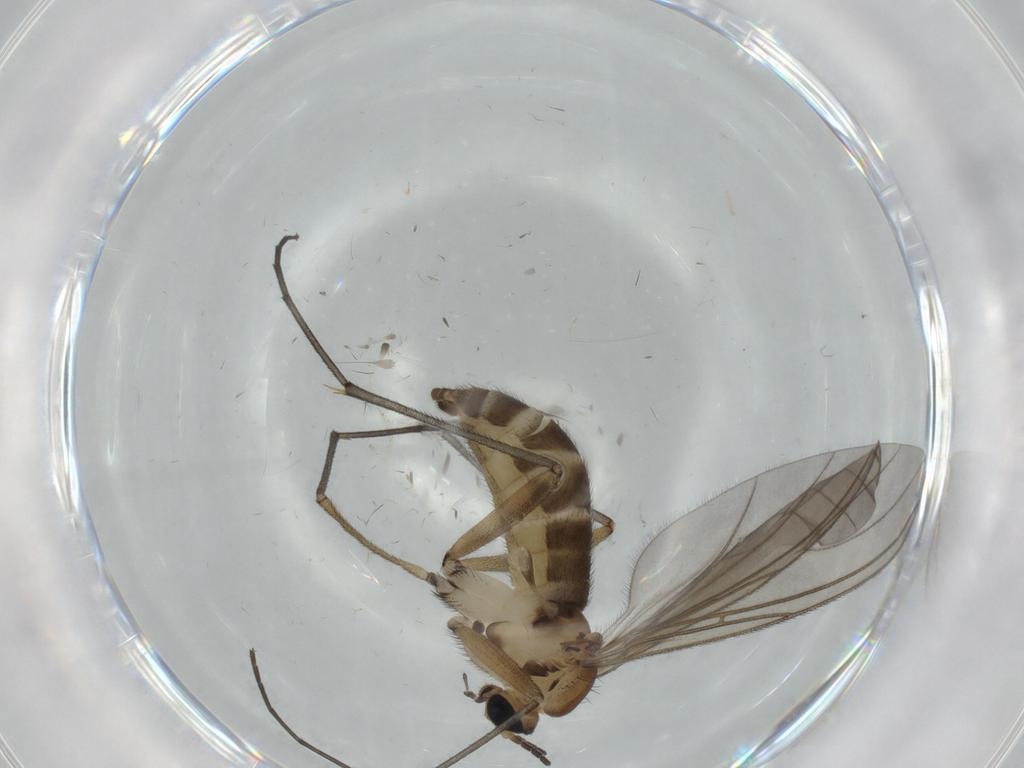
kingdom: Animalia
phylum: Arthropoda
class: Insecta
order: Diptera
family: Sciaridae
